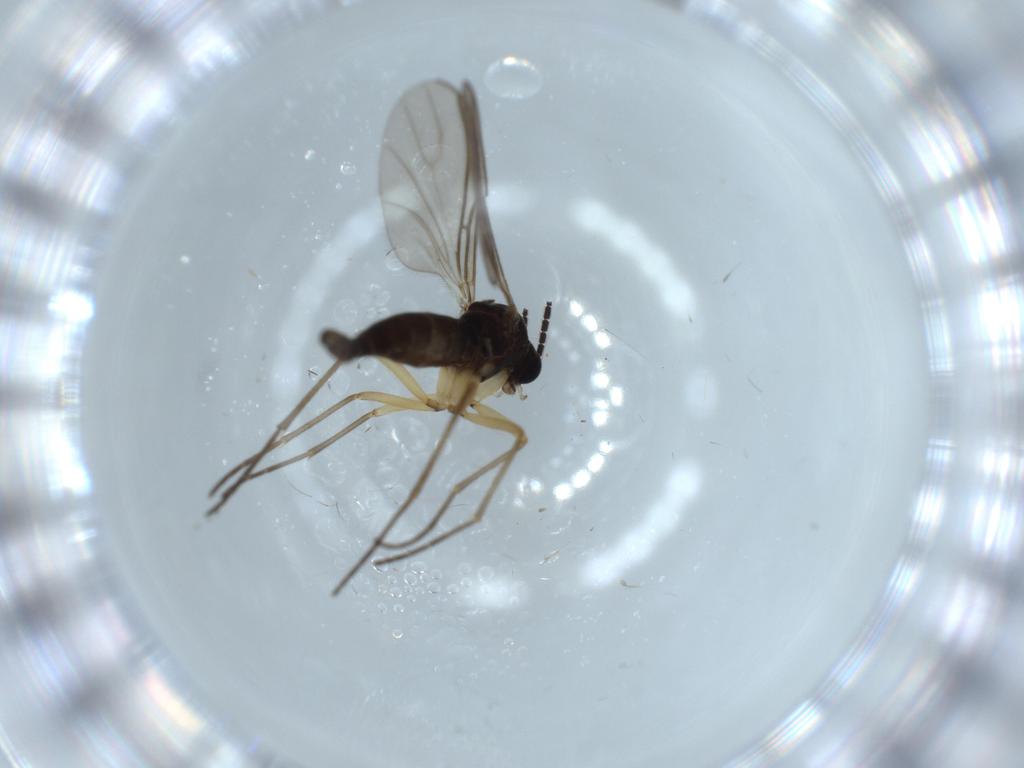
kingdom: Animalia
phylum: Arthropoda
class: Insecta
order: Diptera
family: Sciaridae
